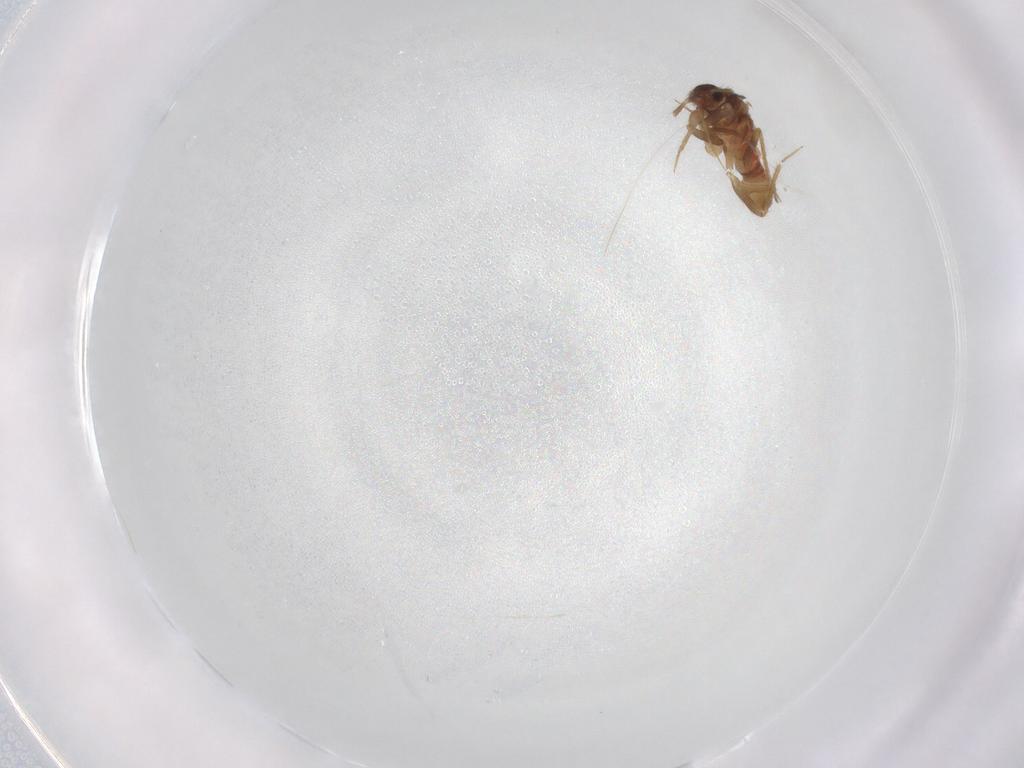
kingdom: Animalia
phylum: Arthropoda
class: Insecta
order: Hemiptera
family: Ceratocombidae
